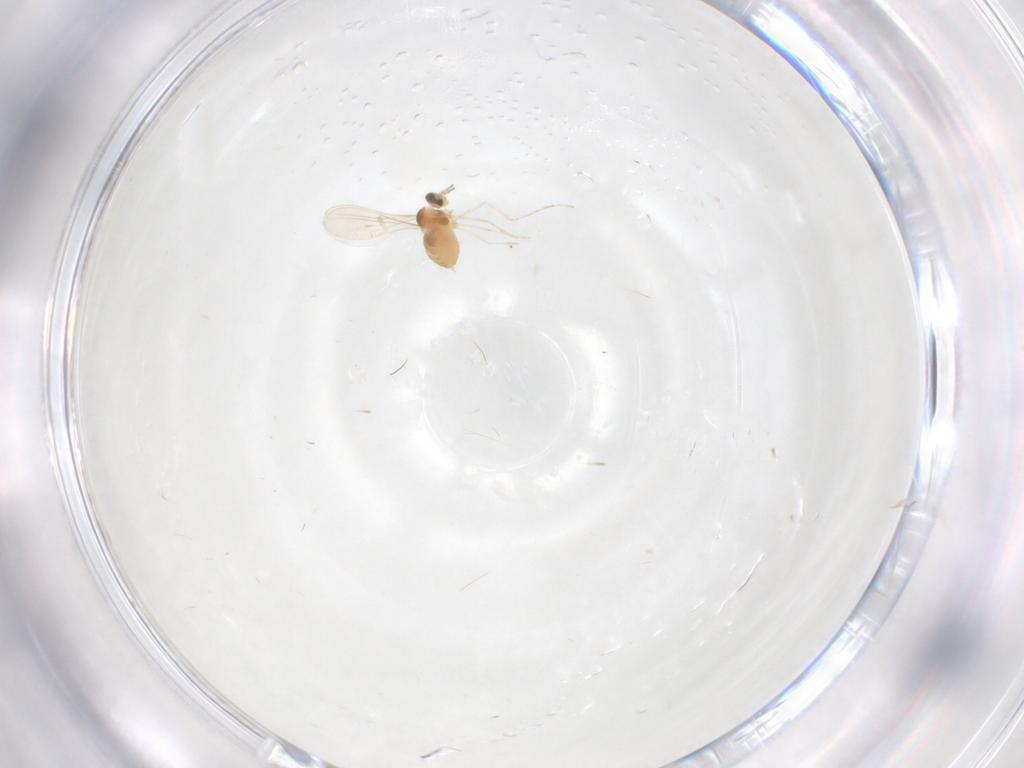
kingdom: Animalia
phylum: Arthropoda
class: Insecta
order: Diptera
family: Cecidomyiidae
